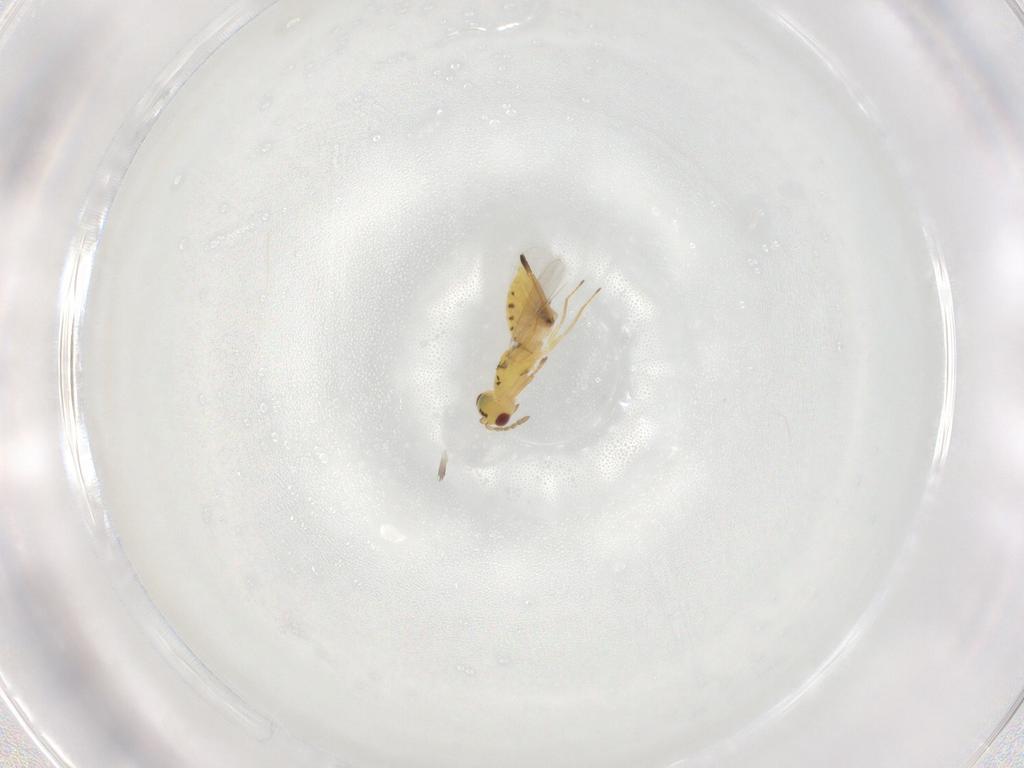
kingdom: Animalia
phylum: Arthropoda
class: Insecta
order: Hymenoptera
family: Eulophidae
